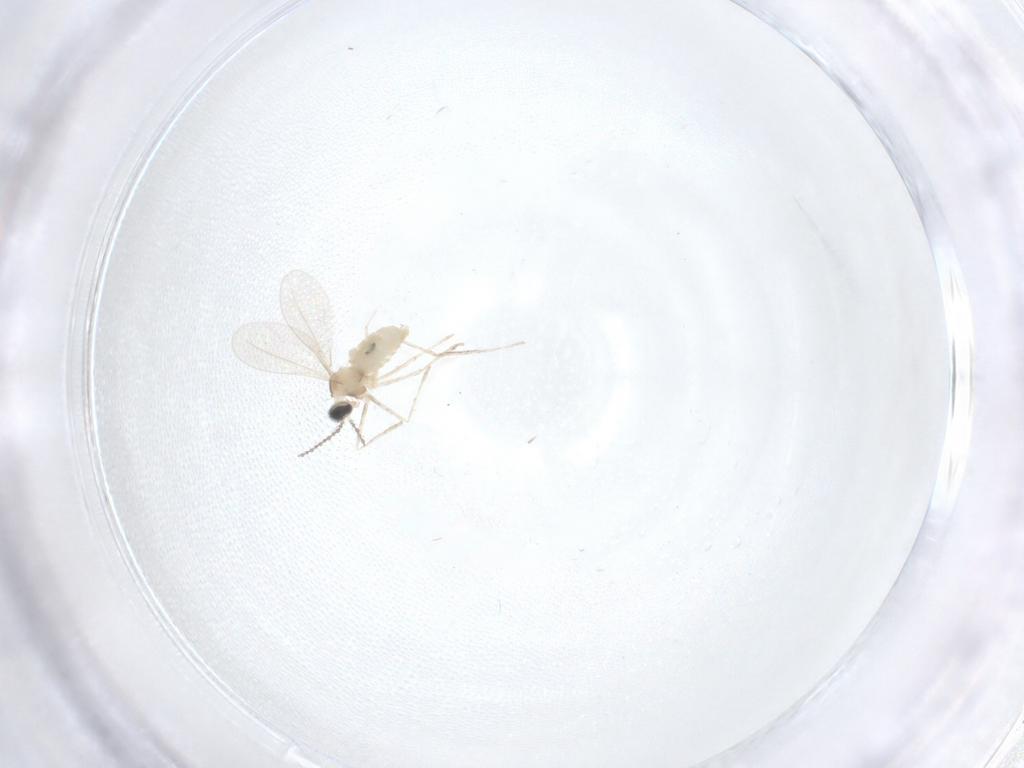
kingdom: Animalia
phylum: Arthropoda
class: Insecta
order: Diptera
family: Cecidomyiidae
